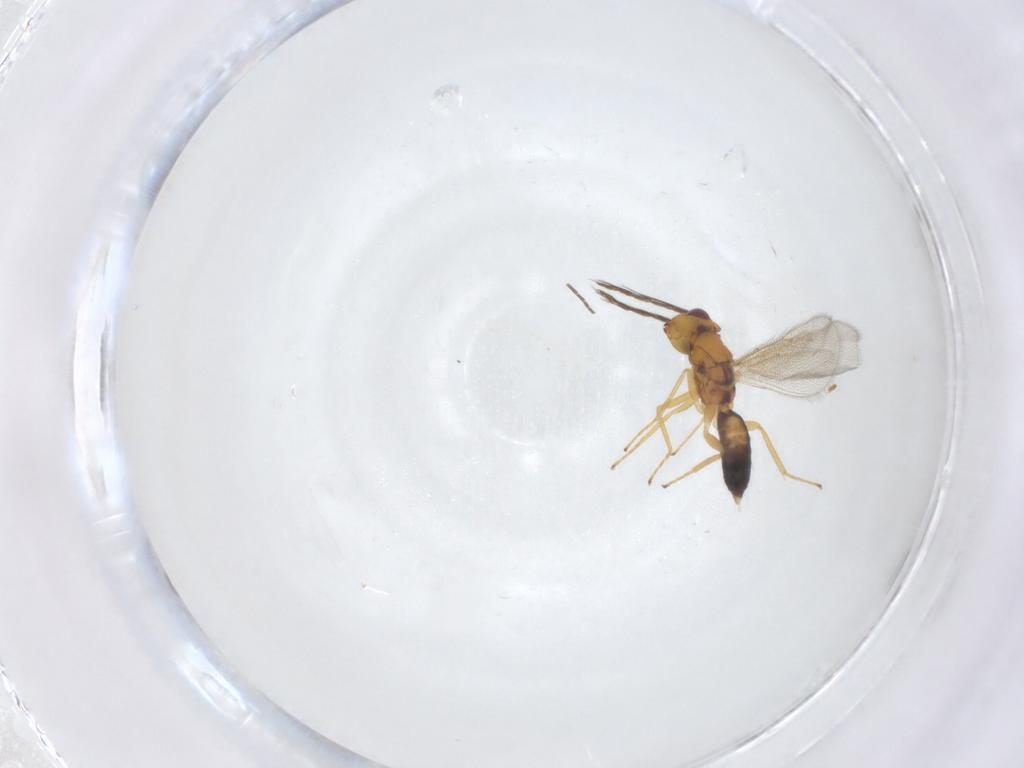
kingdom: Animalia
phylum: Arthropoda
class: Insecta
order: Hymenoptera
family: Eulophidae
